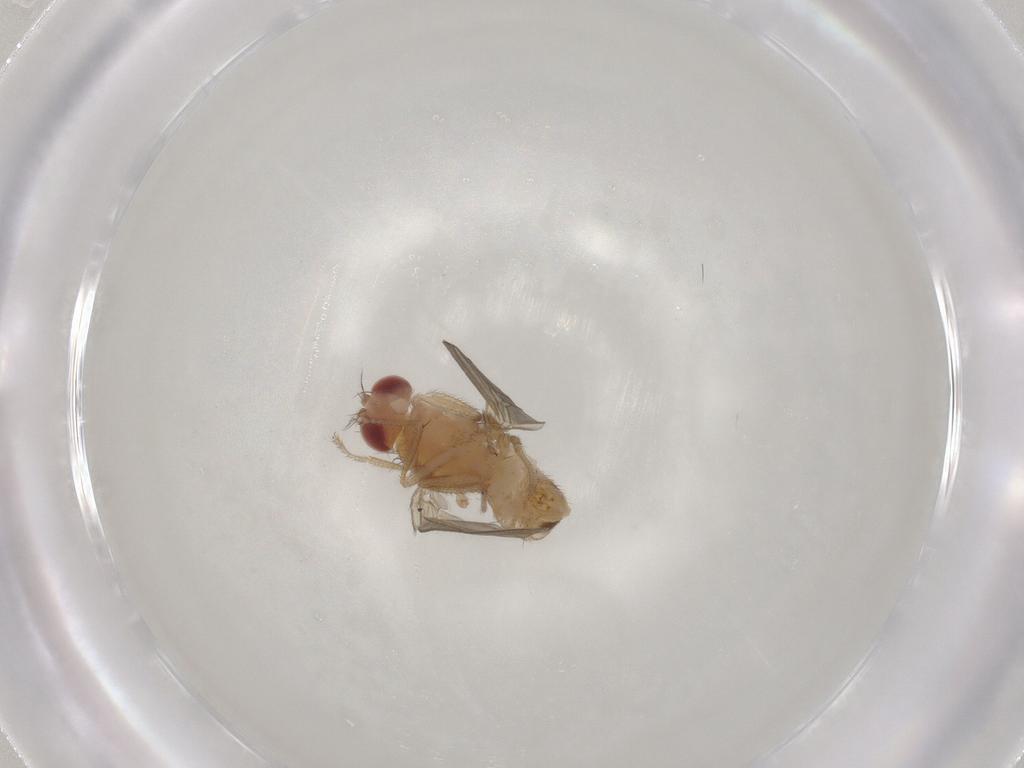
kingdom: Animalia
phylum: Arthropoda
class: Insecta
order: Diptera
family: Drosophilidae
